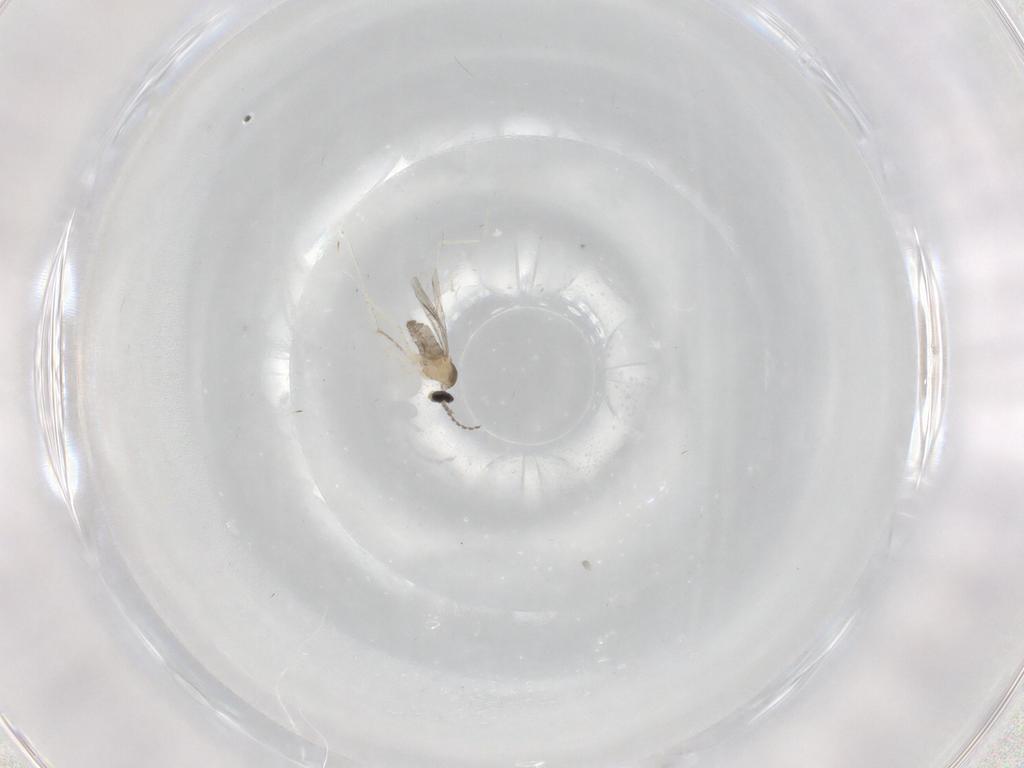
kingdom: Animalia
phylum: Arthropoda
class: Insecta
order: Diptera
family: Cecidomyiidae
